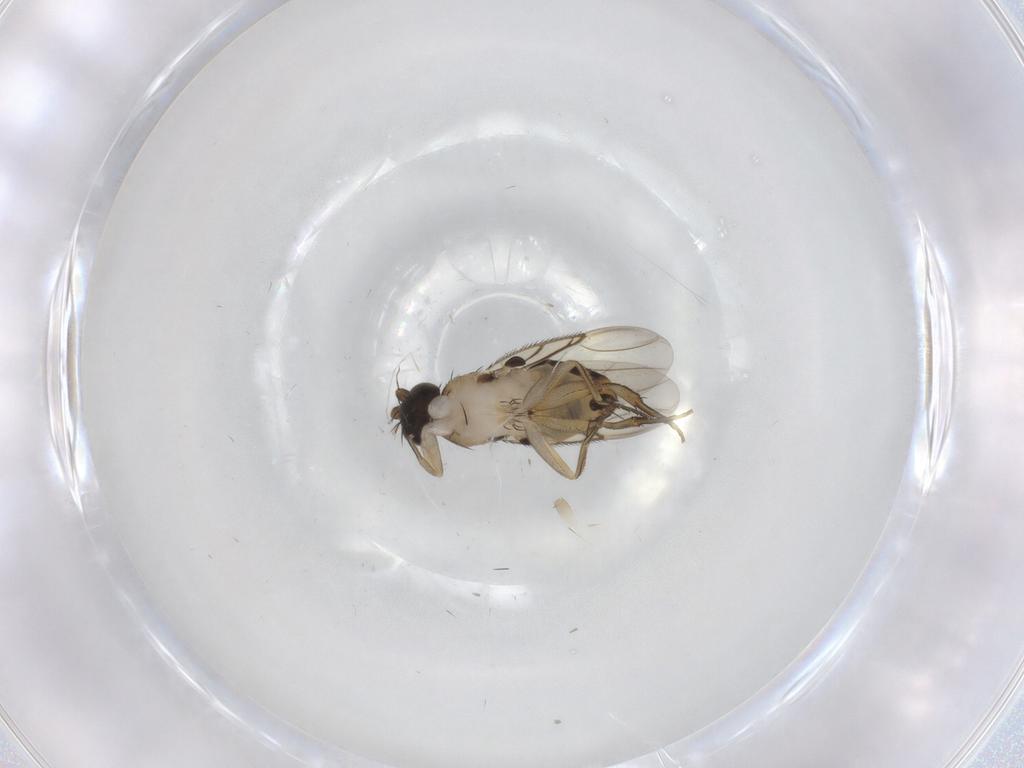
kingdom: Animalia
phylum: Arthropoda
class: Insecta
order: Diptera
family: Phoridae
